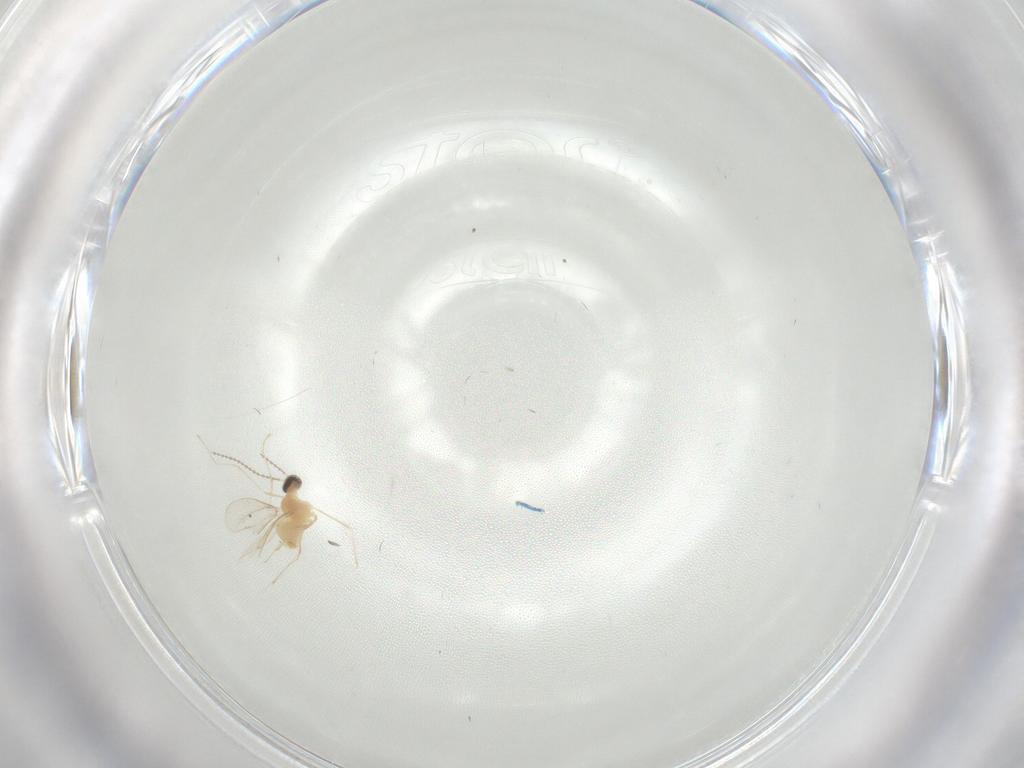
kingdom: Animalia
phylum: Arthropoda
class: Insecta
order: Diptera
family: Cecidomyiidae
